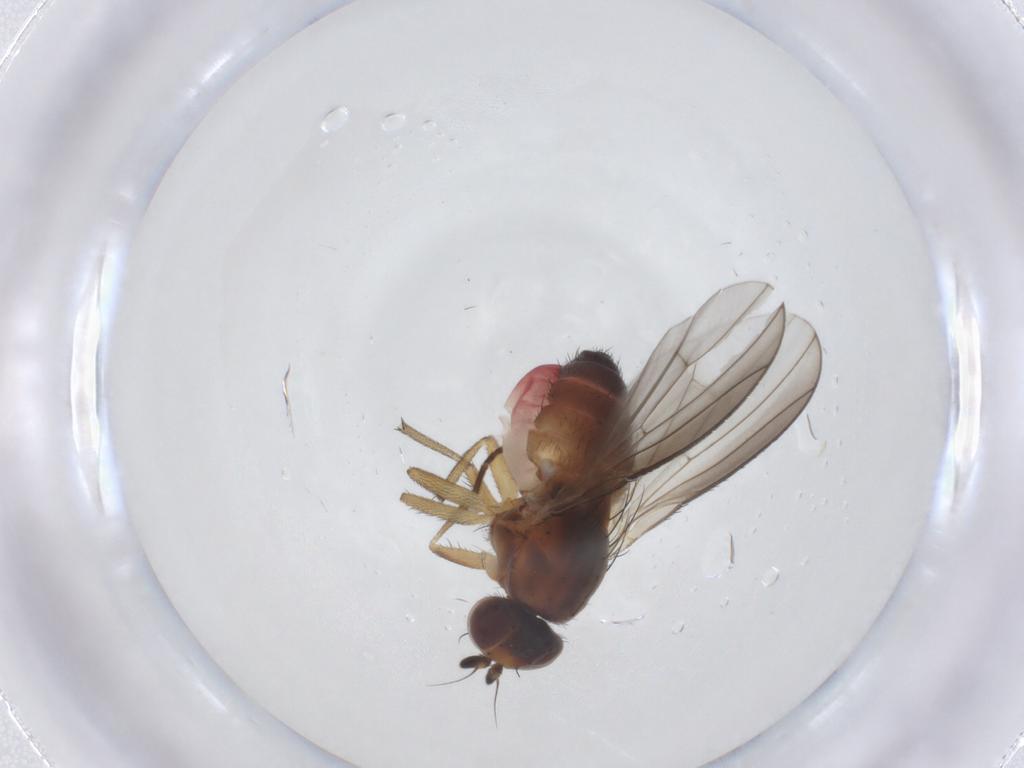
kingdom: Animalia
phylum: Arthropoda
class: Insecta
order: Diptera
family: Heleomyzidae
